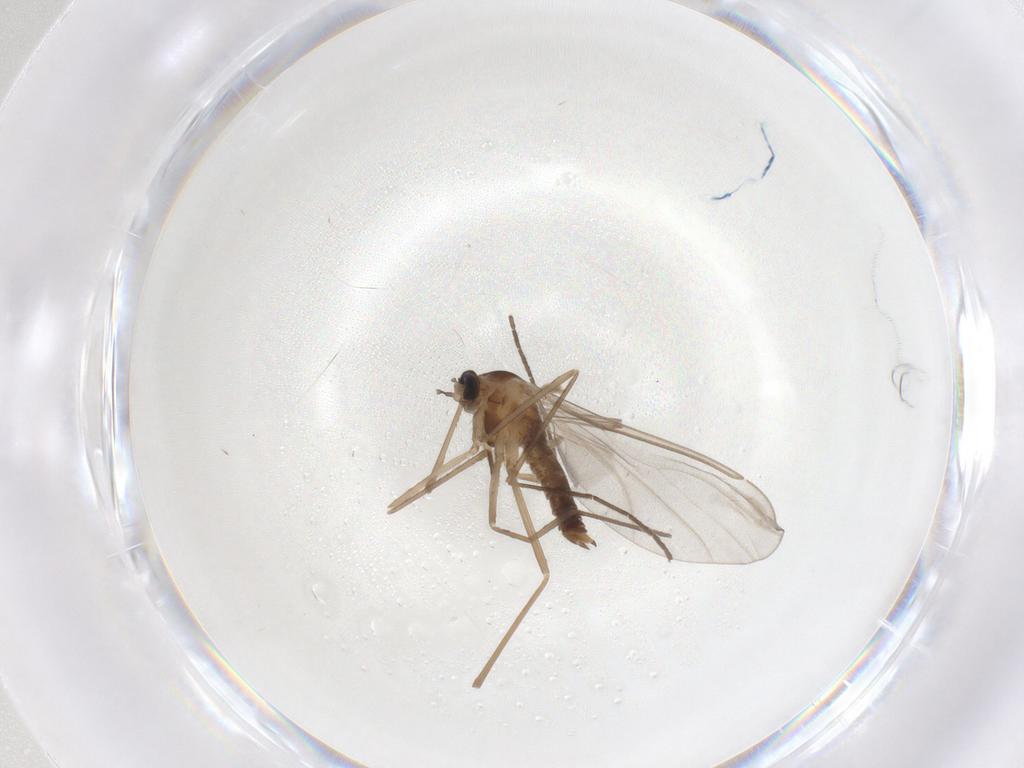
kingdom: Animalia
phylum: Arthropoda
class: Insecta
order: Diptera
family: Cecidomyiidae
